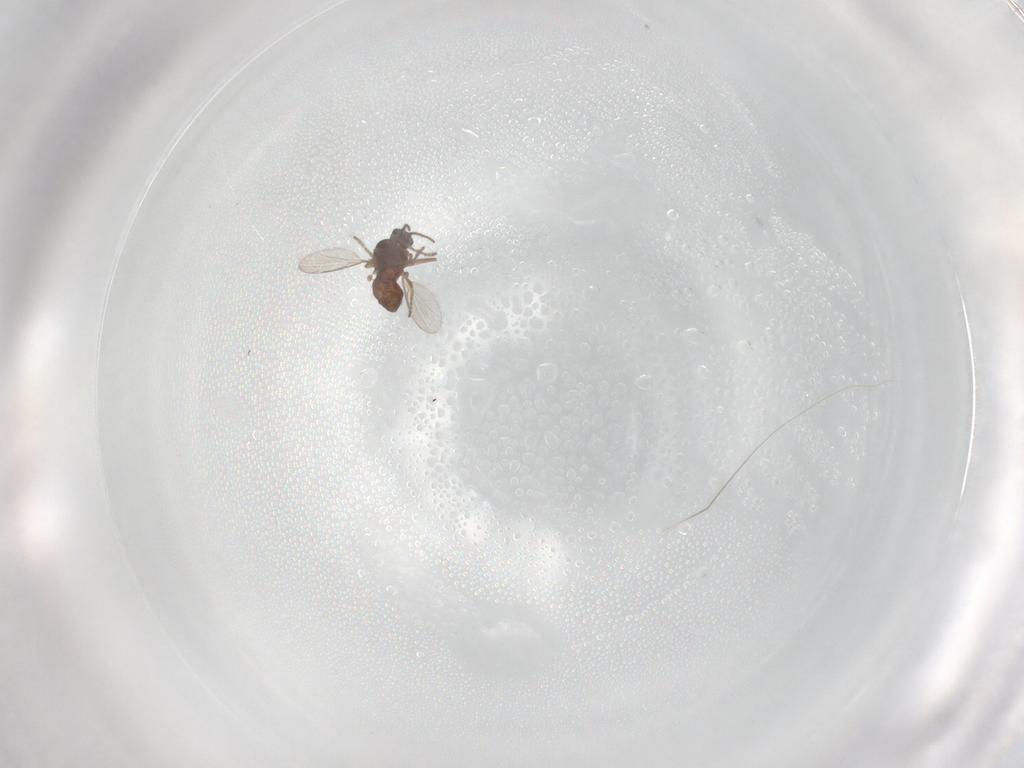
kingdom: Animalia
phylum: Arthropoda
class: Insecta
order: Diptera
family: Ceratopogonidae
